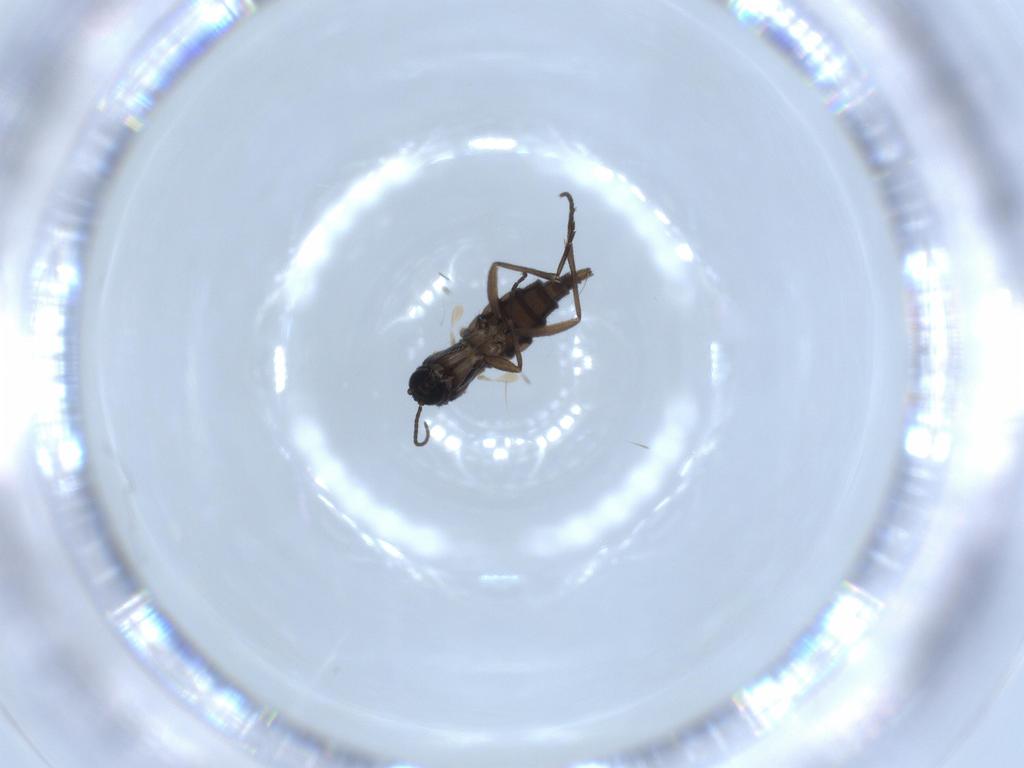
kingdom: Animalia
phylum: Arthropoda
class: Insecta
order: Diptera
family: Sciaridae
